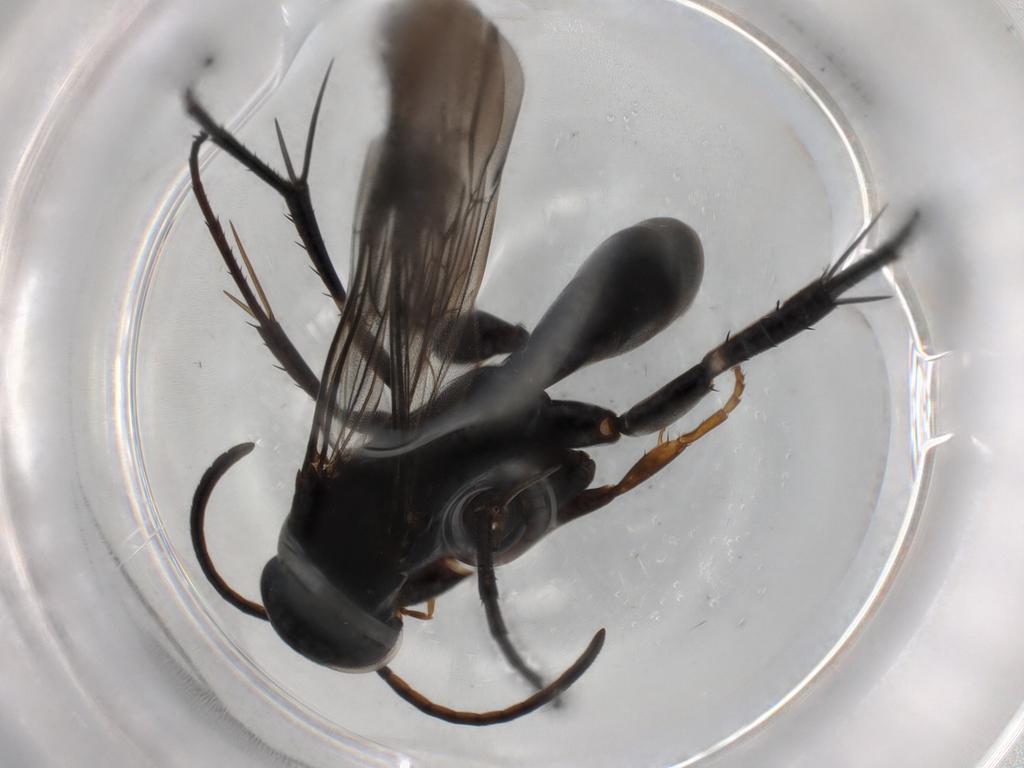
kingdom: Animalia
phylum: Arthropoda
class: Insecta
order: Hymenoptera
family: Pompilidae
